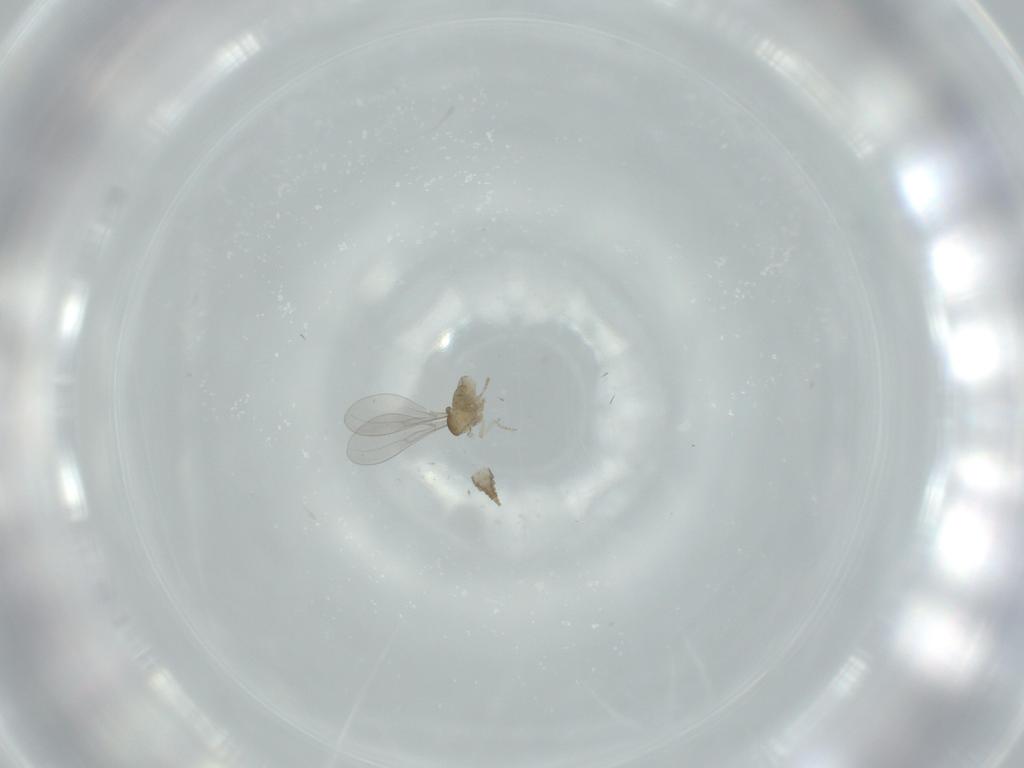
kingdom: Animalia
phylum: Arthropoda
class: Insecta
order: Diptera
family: Cecidomyiidae
